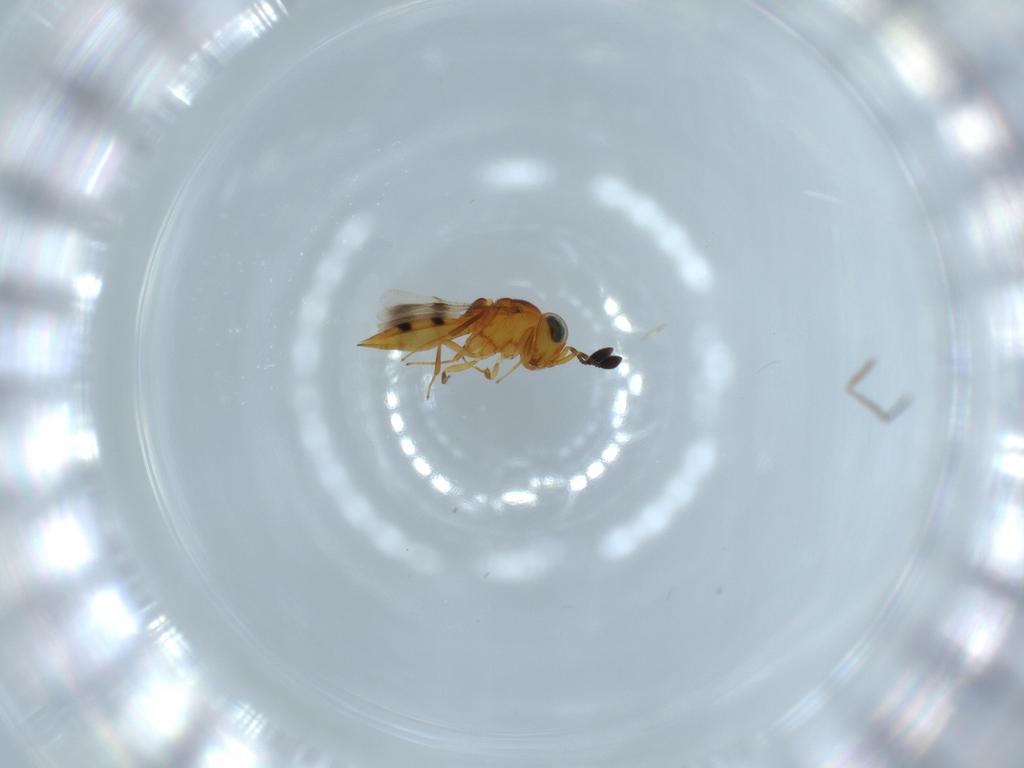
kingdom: Animalia
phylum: Arthropoda
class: Insecta
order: Hymenoptera
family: Scelionidae
